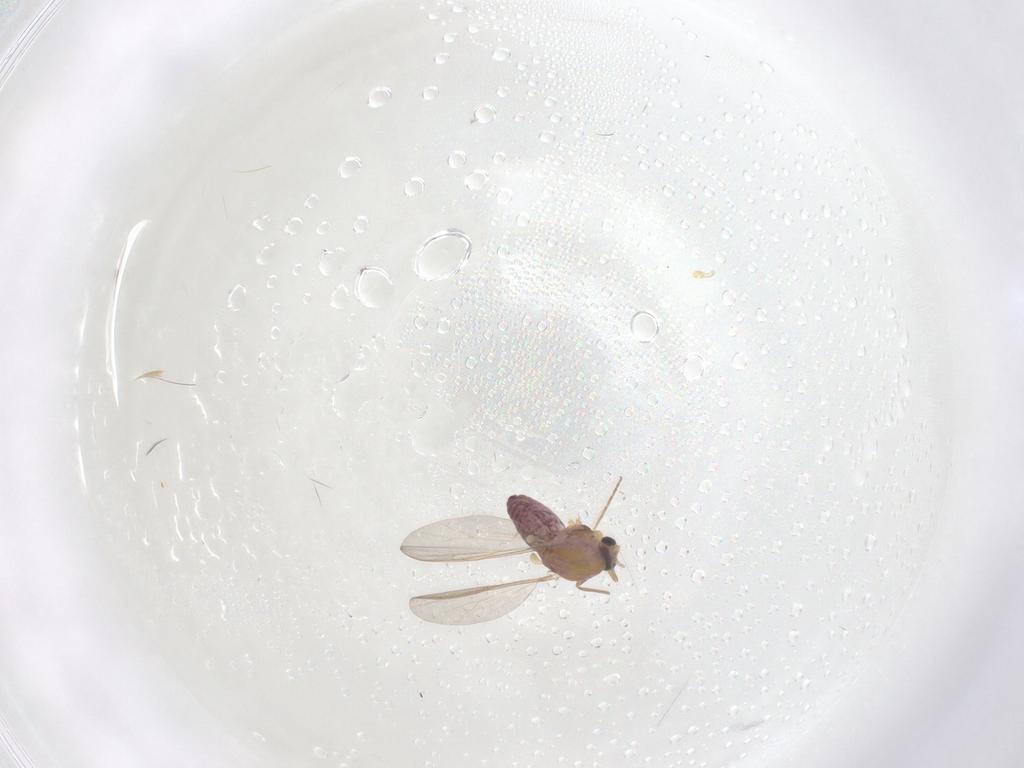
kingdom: Animalia
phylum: Arthropoda
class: Insecta
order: Diptera
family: Chironomidae
